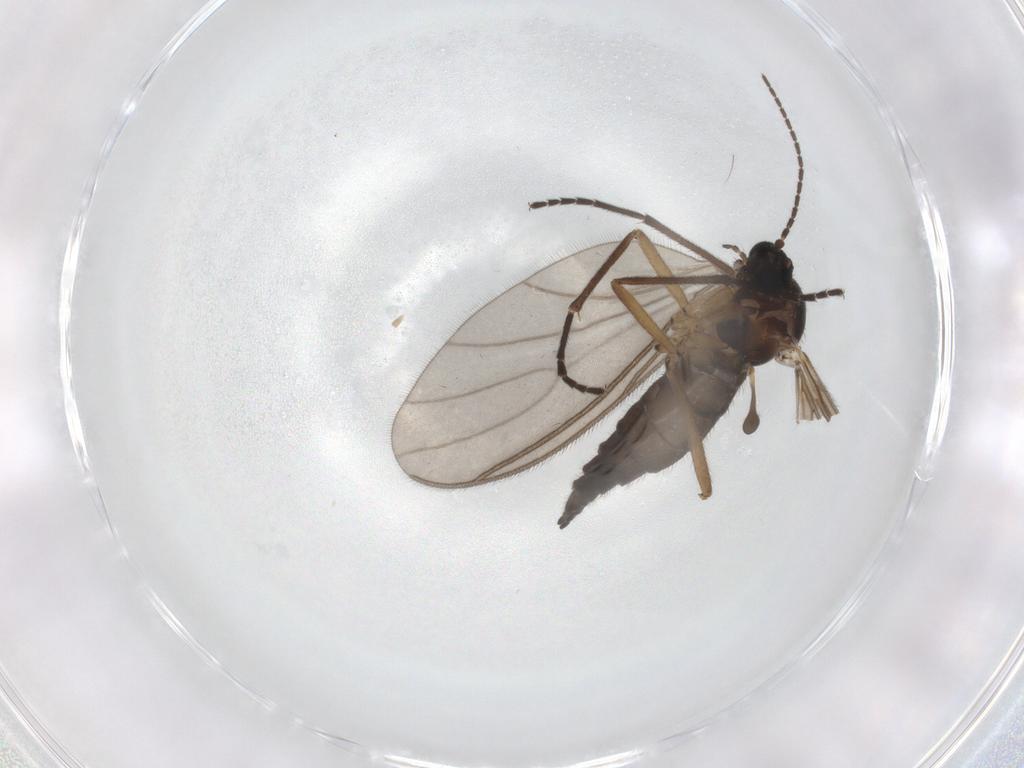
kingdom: Animalia
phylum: Arthropoda
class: Insecta
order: Diptera
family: Sciaridae
